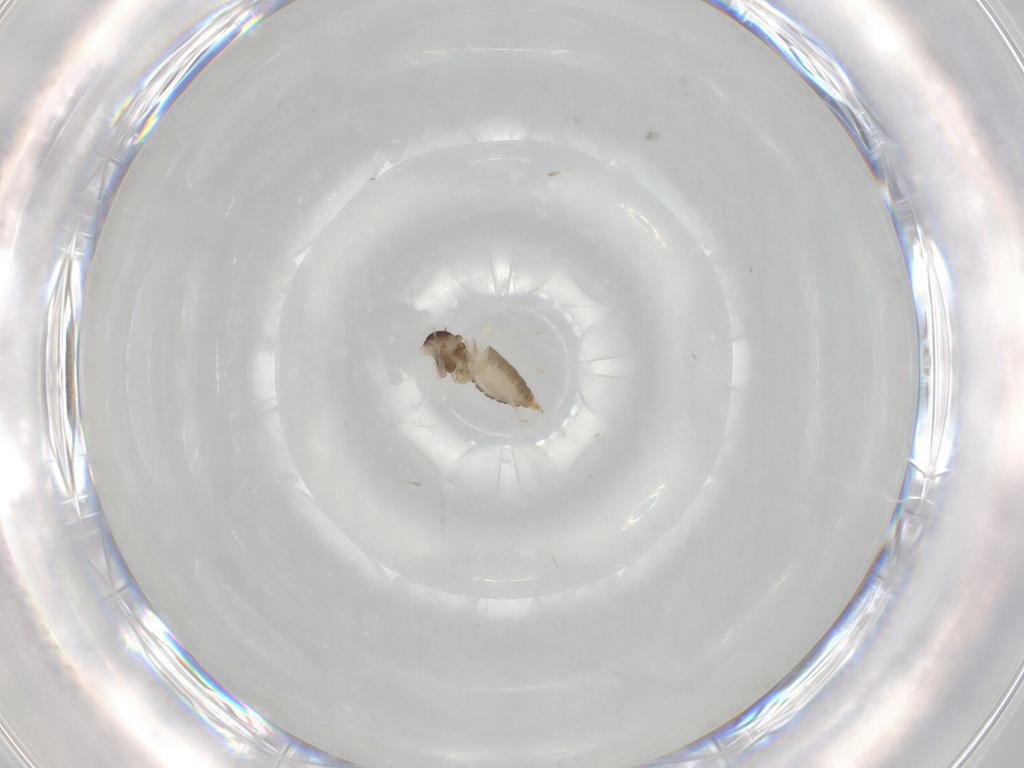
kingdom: Animalia
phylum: Arthropoda
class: Insecta
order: Diptera
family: Cecidomyiidae
